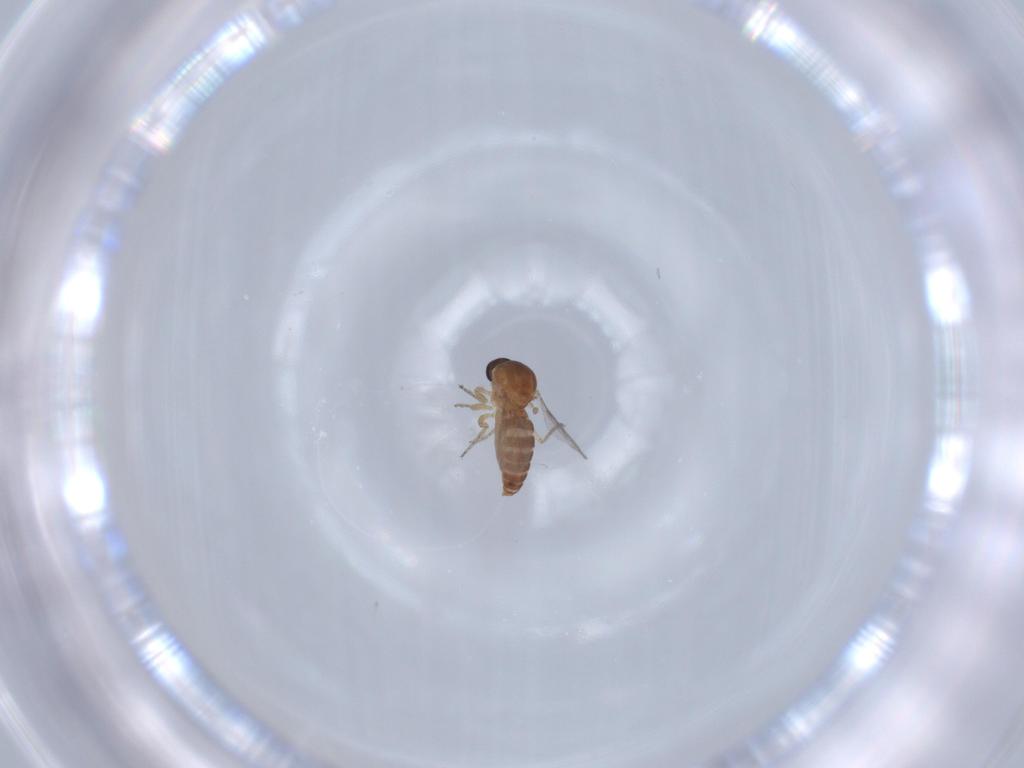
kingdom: Animalia
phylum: Arthropoda
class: Insecta
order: Diptera
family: Ceratopogonidae
